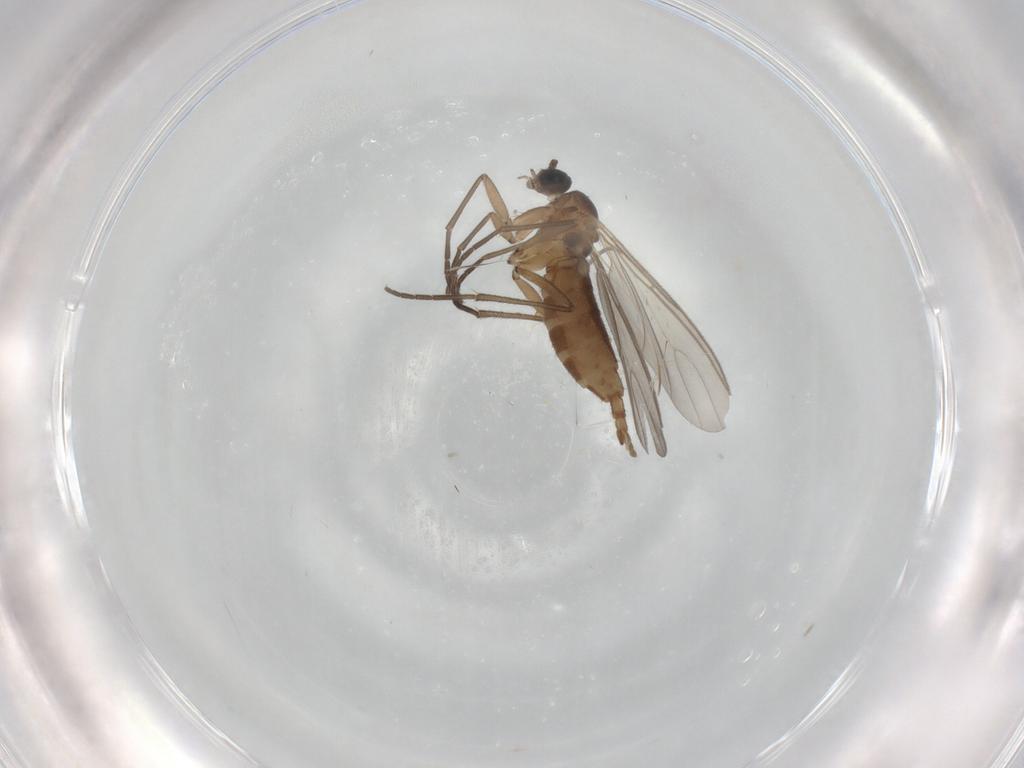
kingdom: Animalia
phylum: Arthropoda
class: Insecta
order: Diptera
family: Sciaridae
